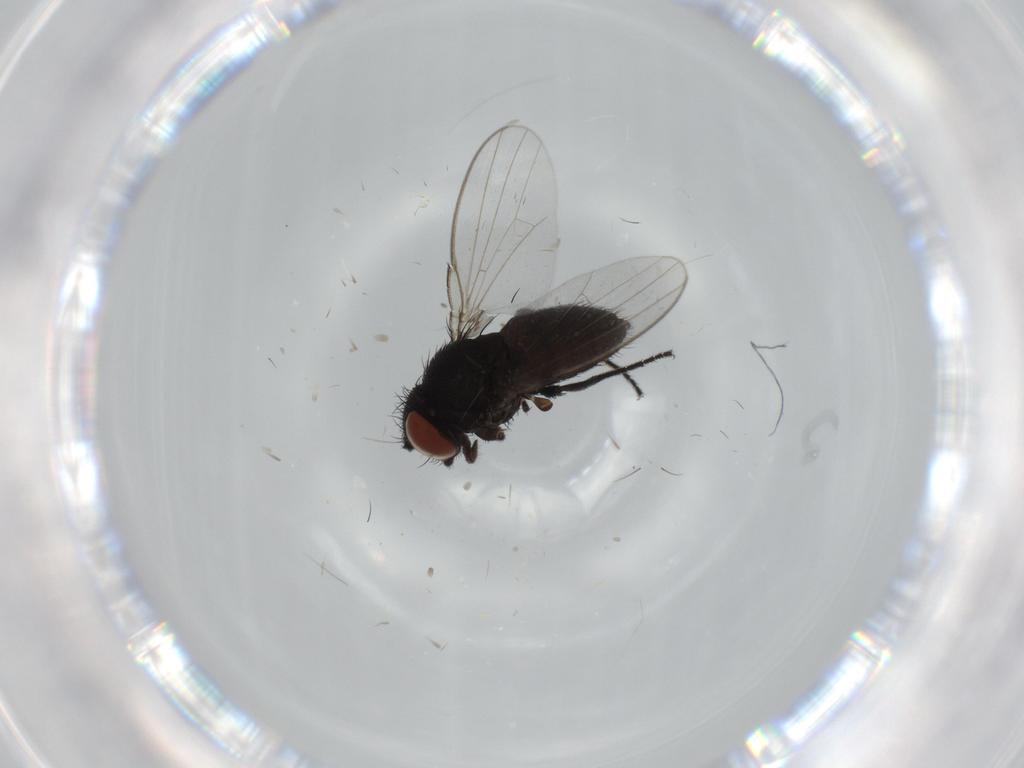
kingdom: Animalia
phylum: Arthropoda
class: Insecta
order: Diptera
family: Milichiidae
